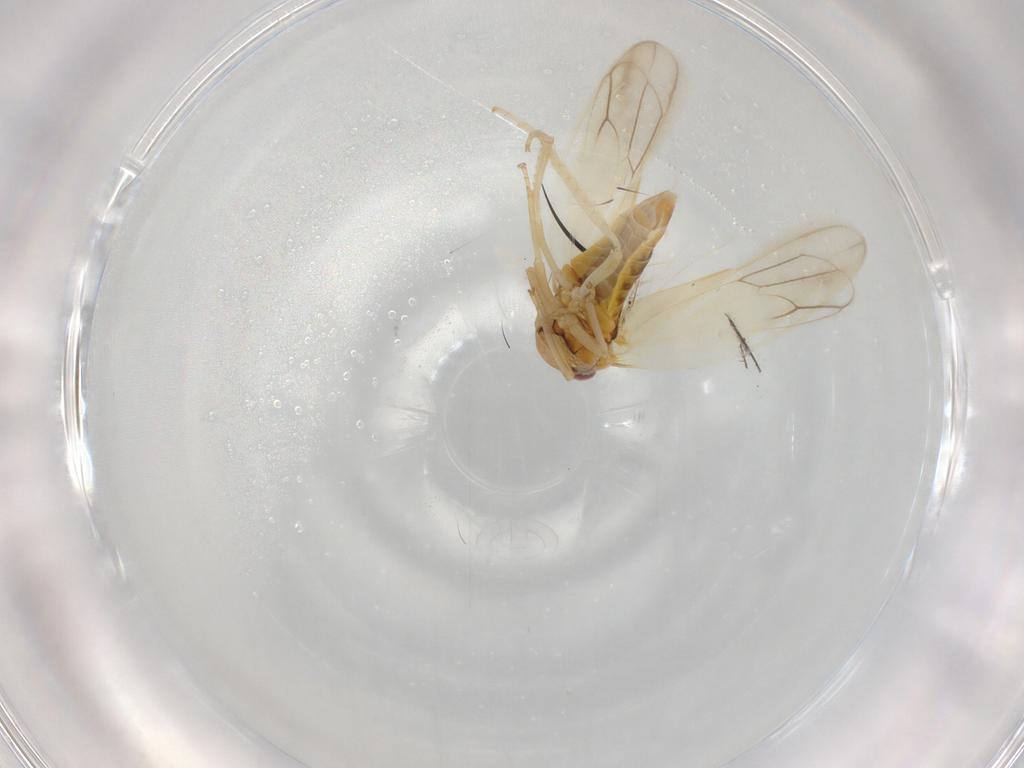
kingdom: Animalia
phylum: Arthropoda
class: Insecta
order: Hemiptera
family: Cicadellidae
